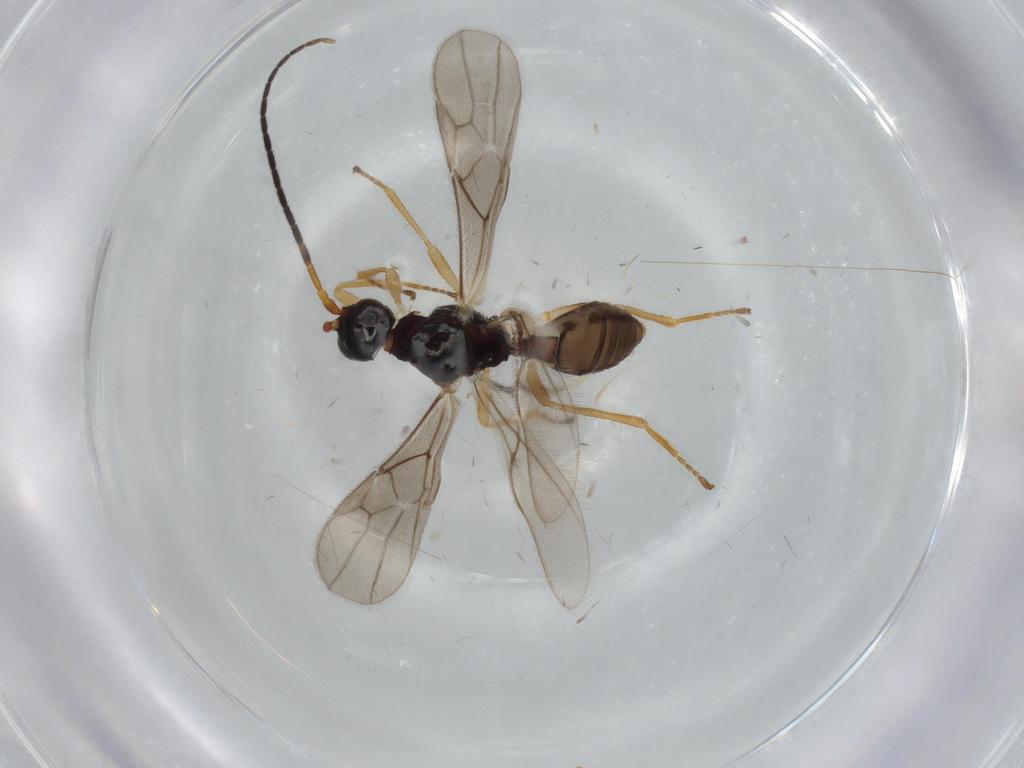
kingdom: Animalia
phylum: Arthropoda
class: Insecta
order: Hymenoptera
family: Platygastridae
